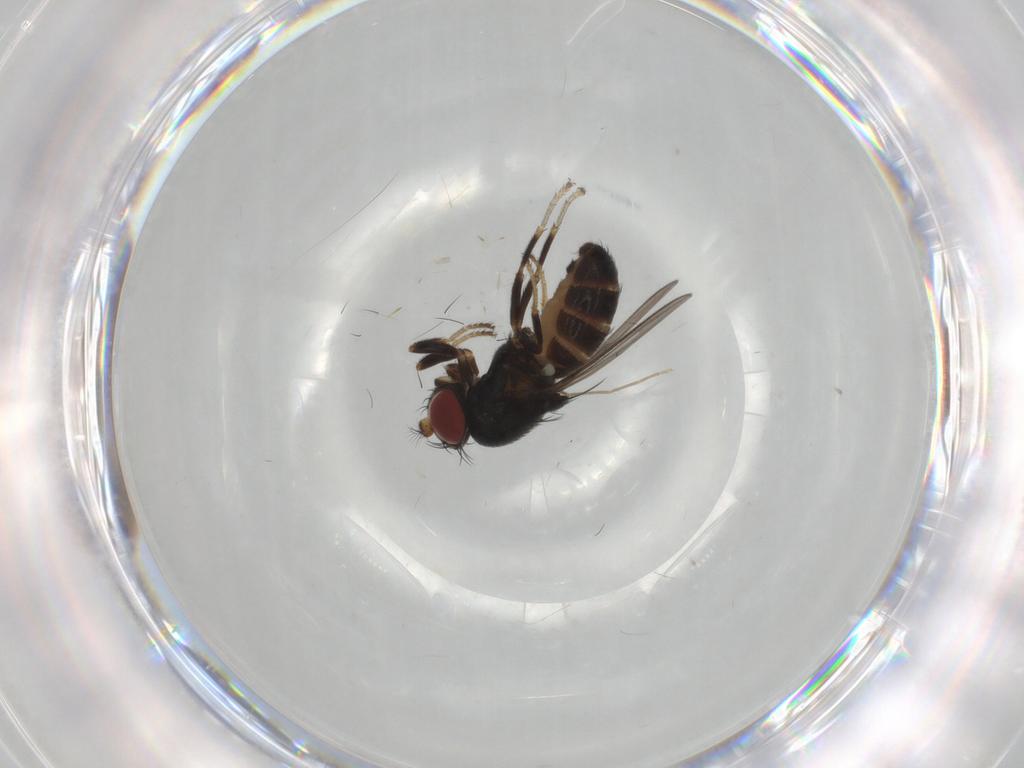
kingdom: Animalia
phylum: Arthropoda
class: Insecta
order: Diptera
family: Ephydridae
